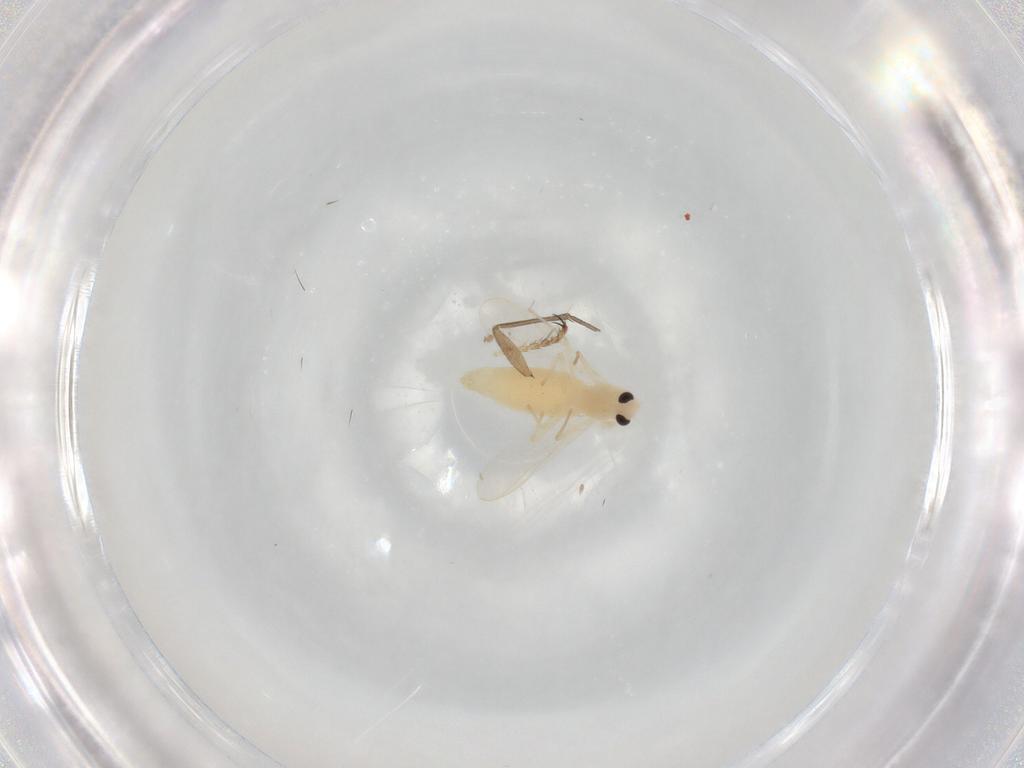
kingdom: Animalia
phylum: Arthropoda
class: Insecta
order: Diptera
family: Chironomidae
